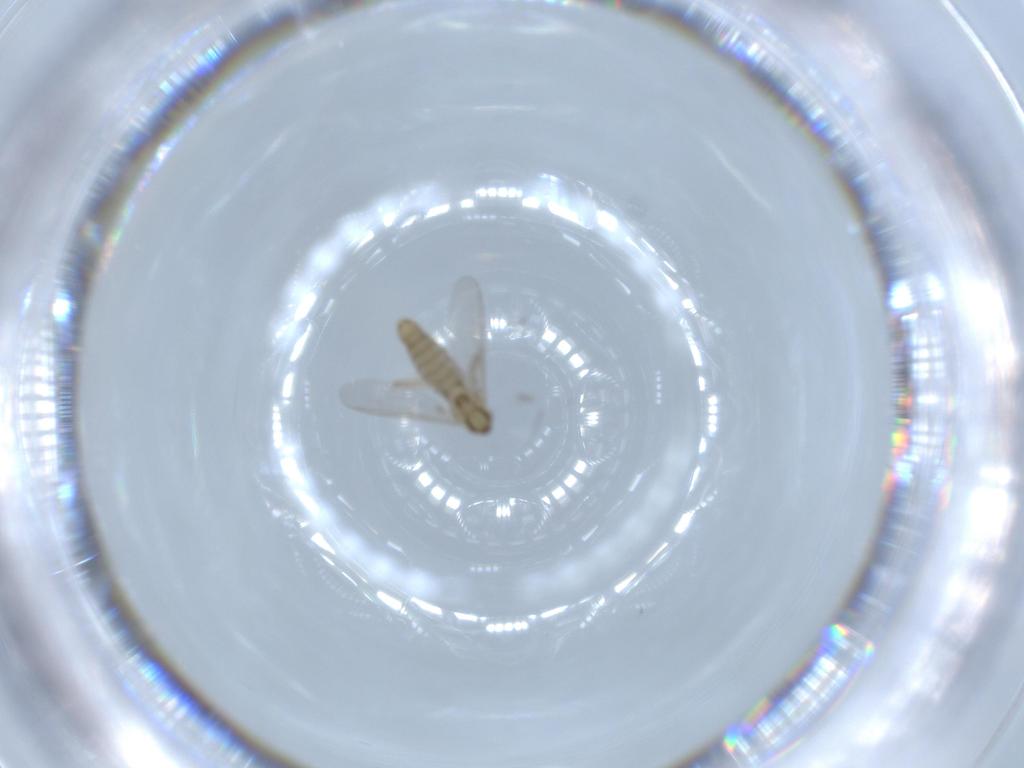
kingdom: Animalia
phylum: Arthropoda
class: Insecta
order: Diptera
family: Chironomidae
